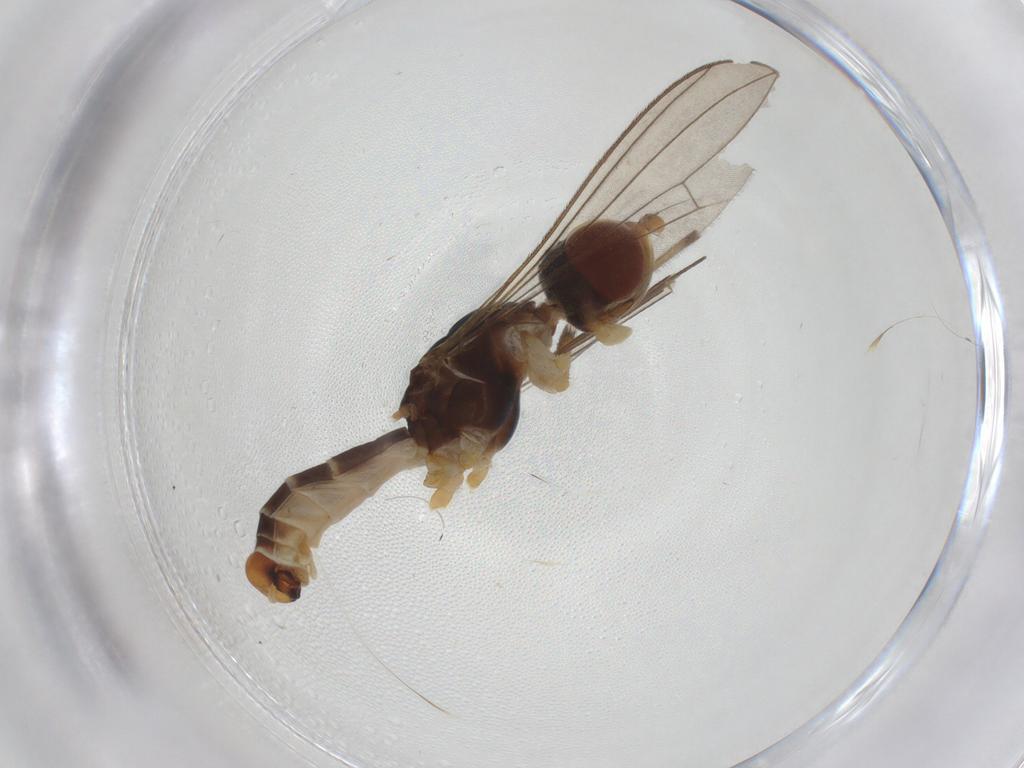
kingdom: Animalia
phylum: Arthropoda
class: Insecta
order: Diptera
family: Micropezidae
